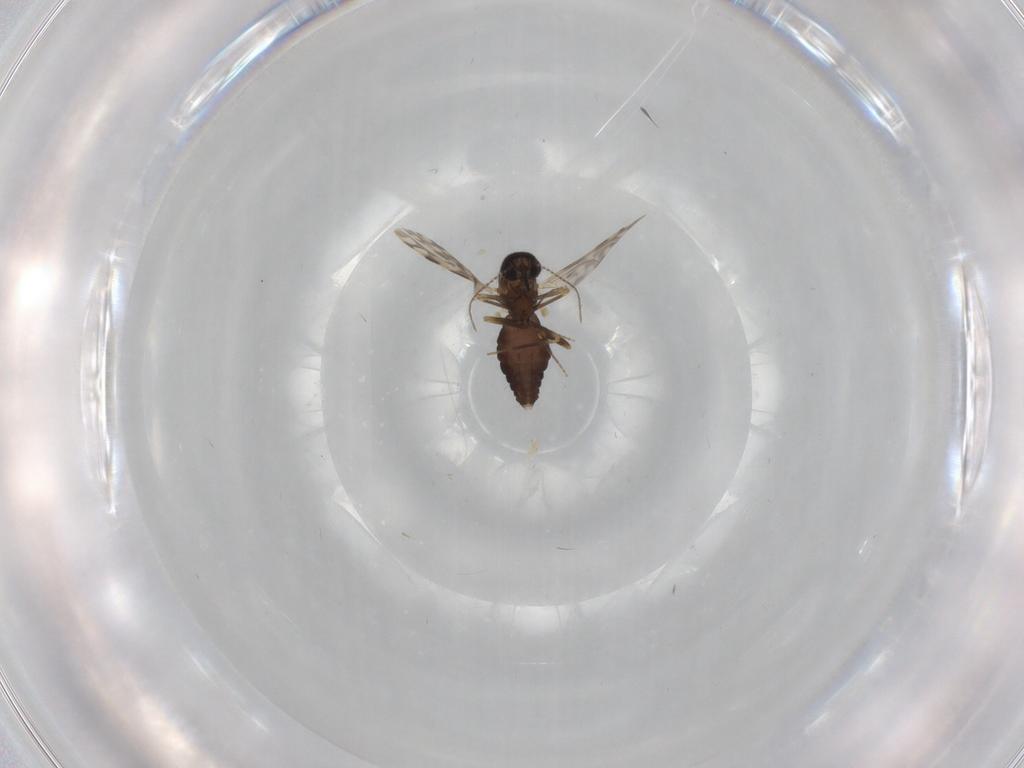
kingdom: Animalia
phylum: Arthropoda
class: Insecta
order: Diptera
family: Ceratopogonidae
